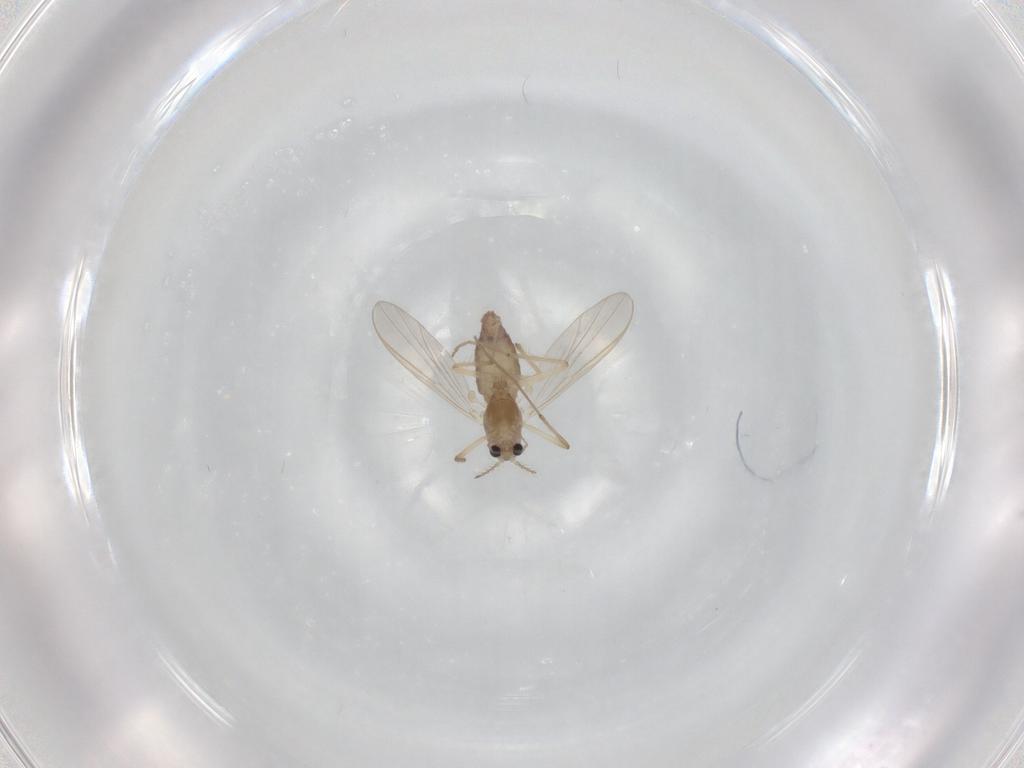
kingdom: Animalia
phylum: Arthropoda
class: Insecta
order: Diptera
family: Chironomidae
